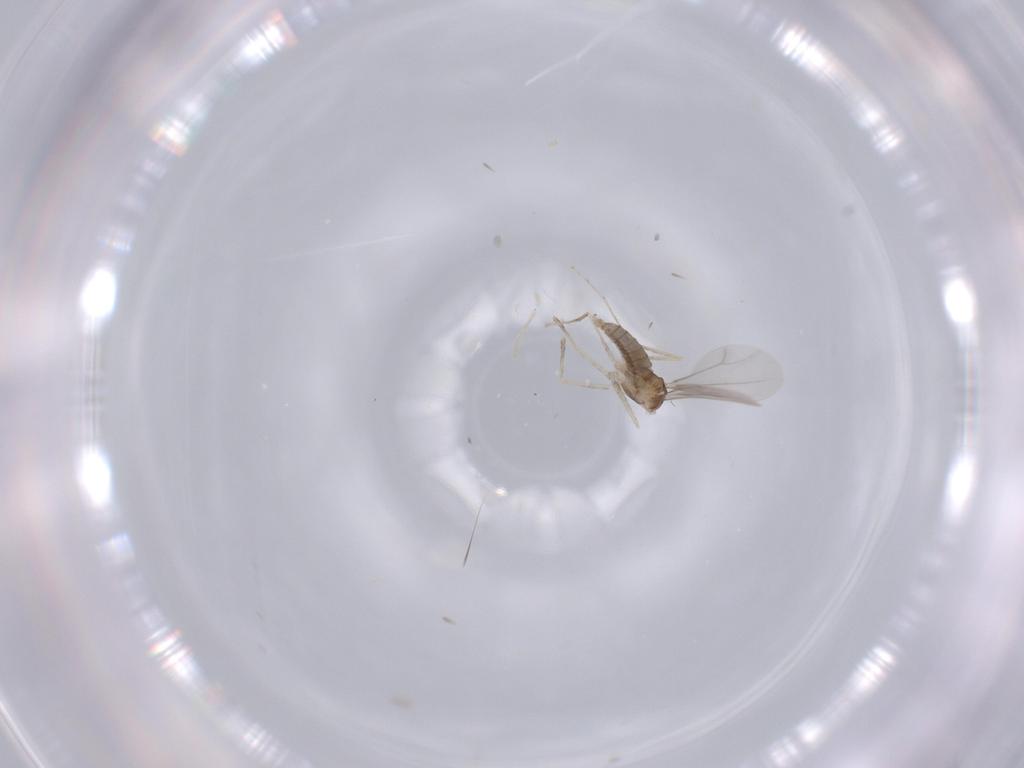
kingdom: Animalia
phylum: Arthropoda
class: Insecta
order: Diptera
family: Cecidomyiidae
